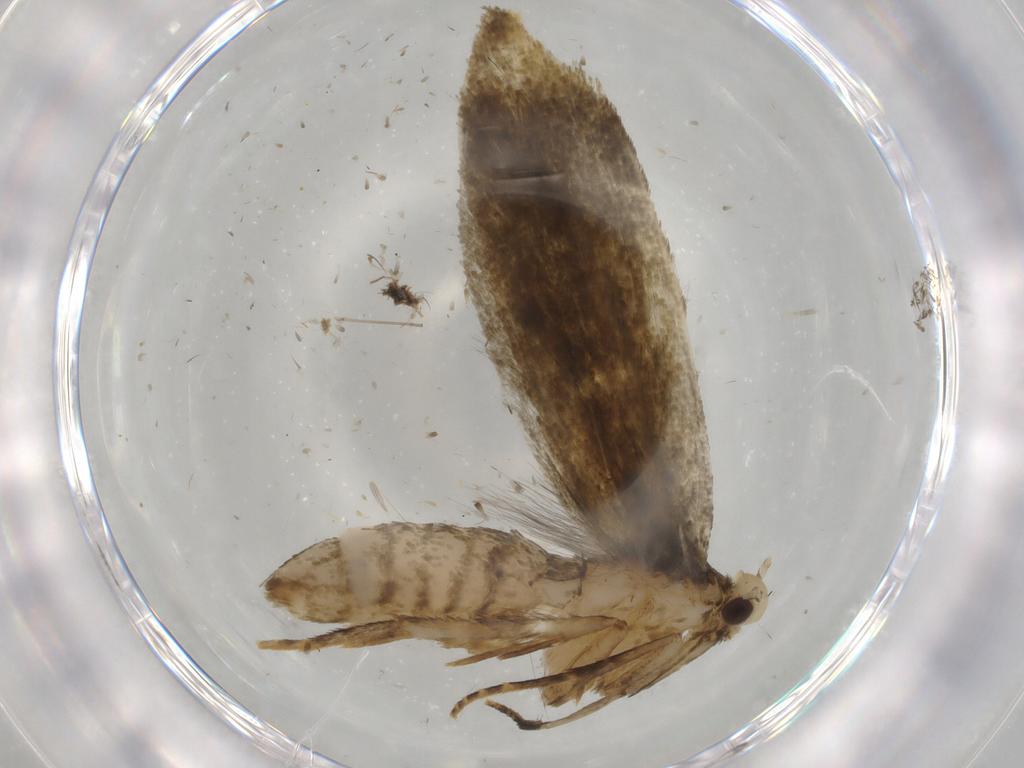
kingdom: Animalia
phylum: Arthropoda
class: Insecta
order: Lepidoptera
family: Pieridae
